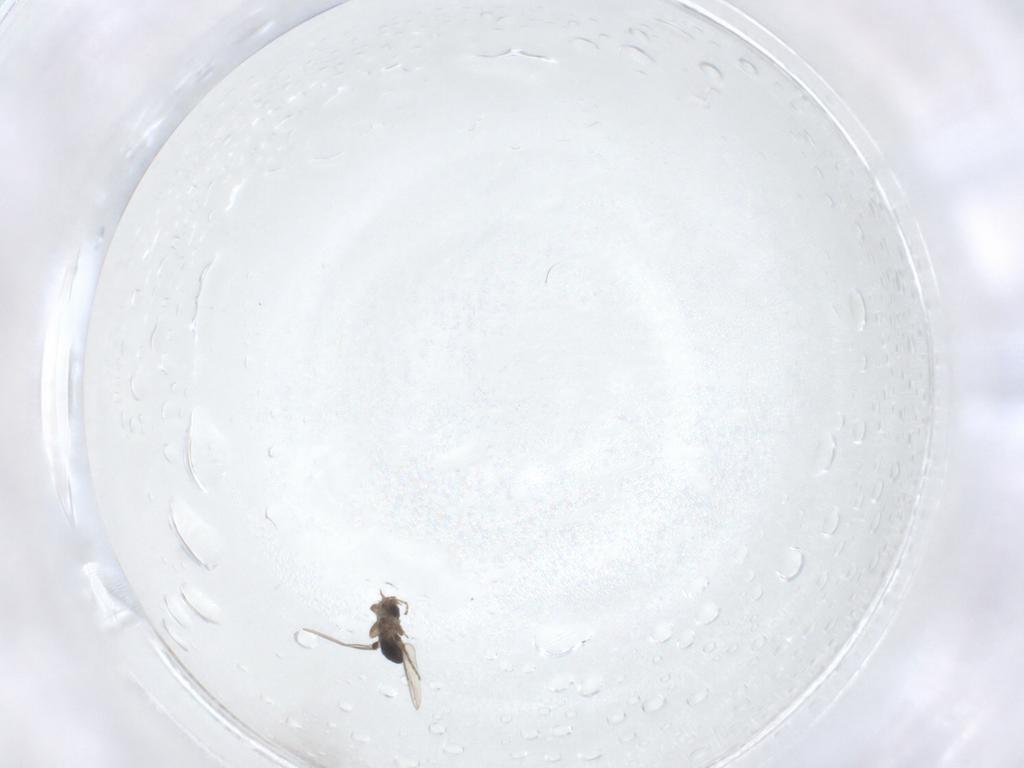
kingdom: Animalia
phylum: Arthropoda
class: Insecta
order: Diptera
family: Phoridae
